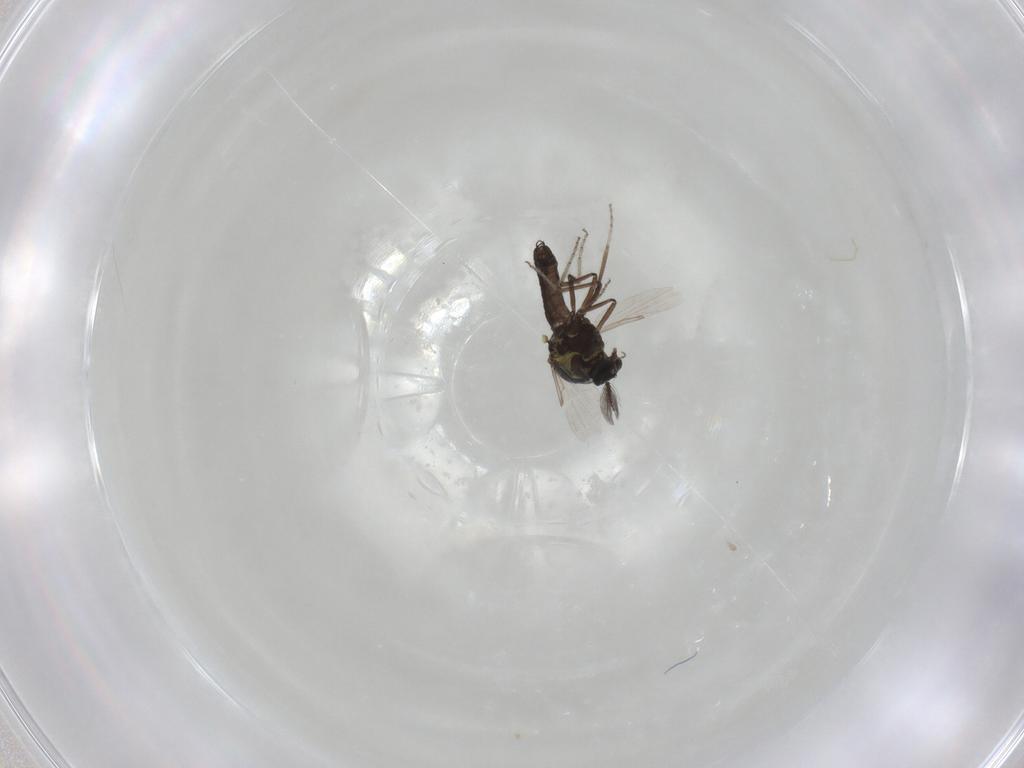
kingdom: Animalia
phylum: Arthropoda
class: Insecta
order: Diptera
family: Ceratopogonidae
